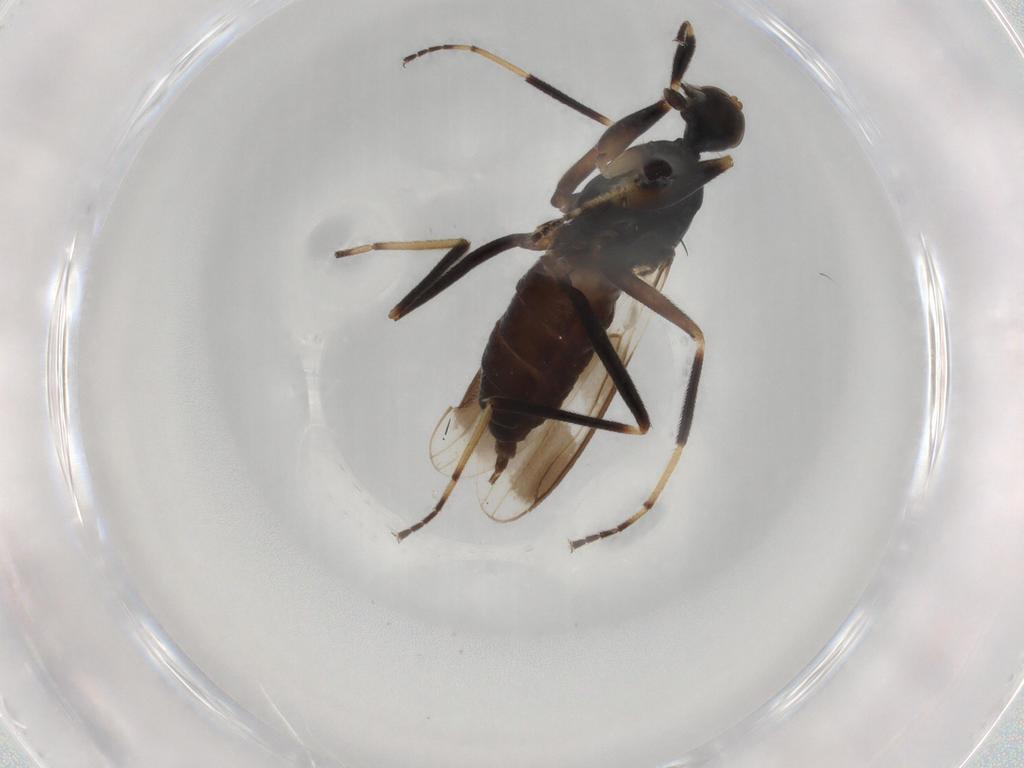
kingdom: Animalia
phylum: Arthropoda
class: Insecta
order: Diptera
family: Hybotidae
